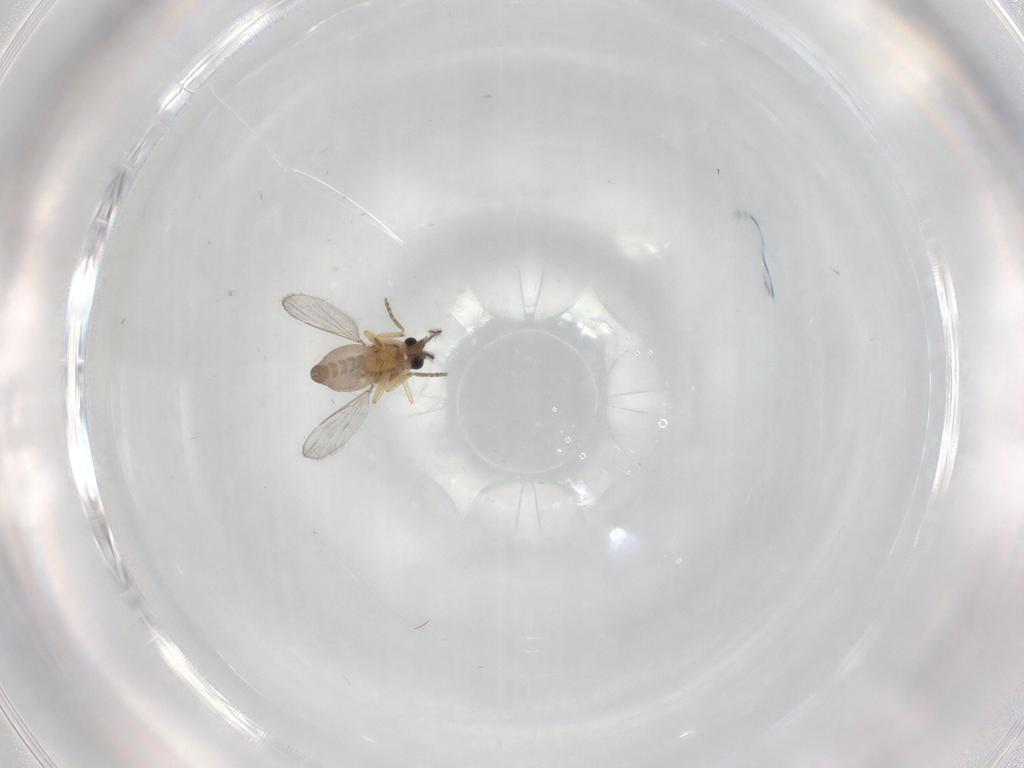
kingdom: Animalia
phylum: Arthropoda
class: Insecta
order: Diptera
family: Ceratopogonidae
